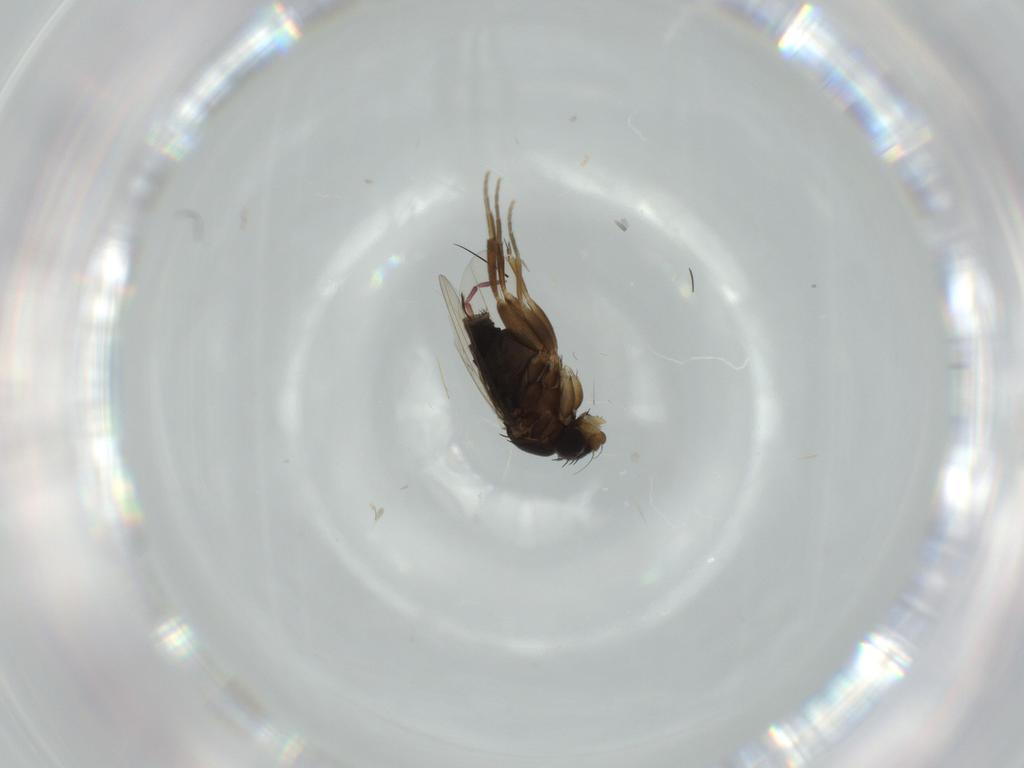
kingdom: Animalia
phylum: Arthropoda
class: Insecta
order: Diptera
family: Phoridae
